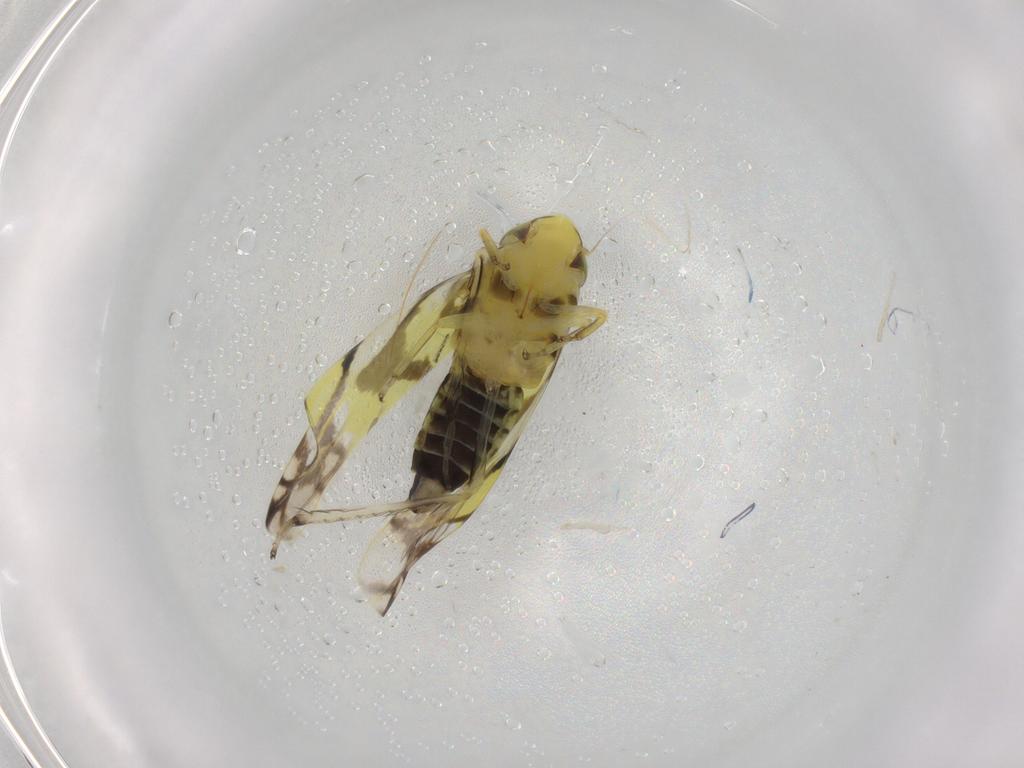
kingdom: Animalia
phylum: Arthropoda
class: Insecta
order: Hemiptera
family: Cicadellidae
